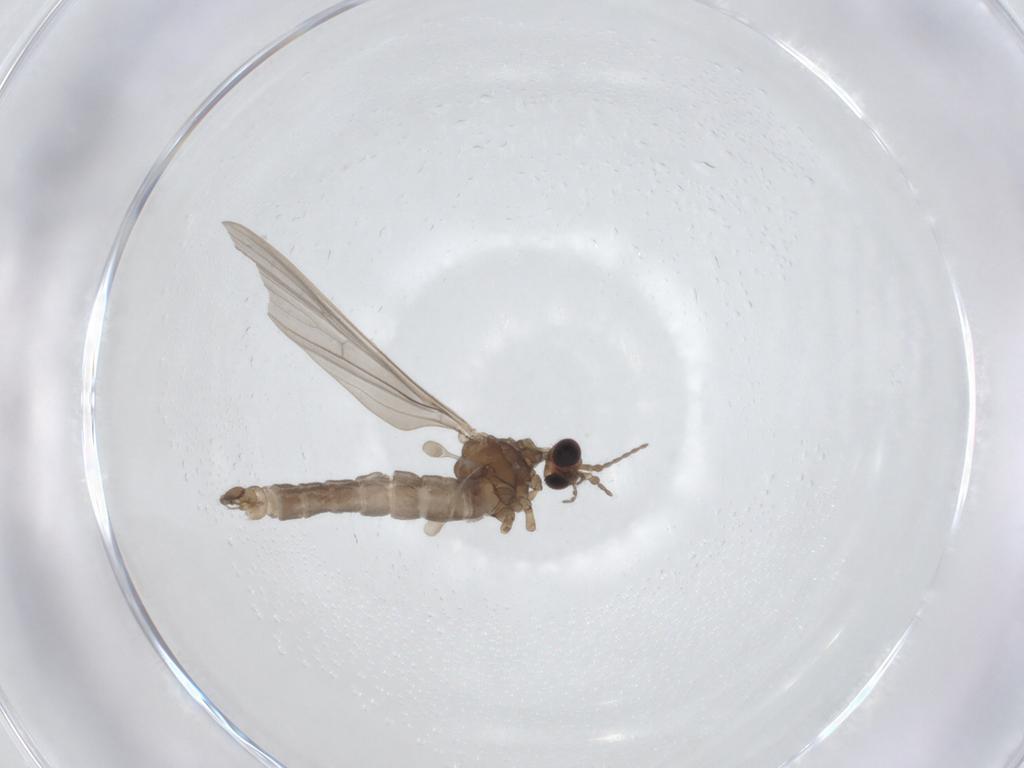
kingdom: Animalia
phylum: Arthropoda
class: Insecta
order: Diptera
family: Limoniidae
